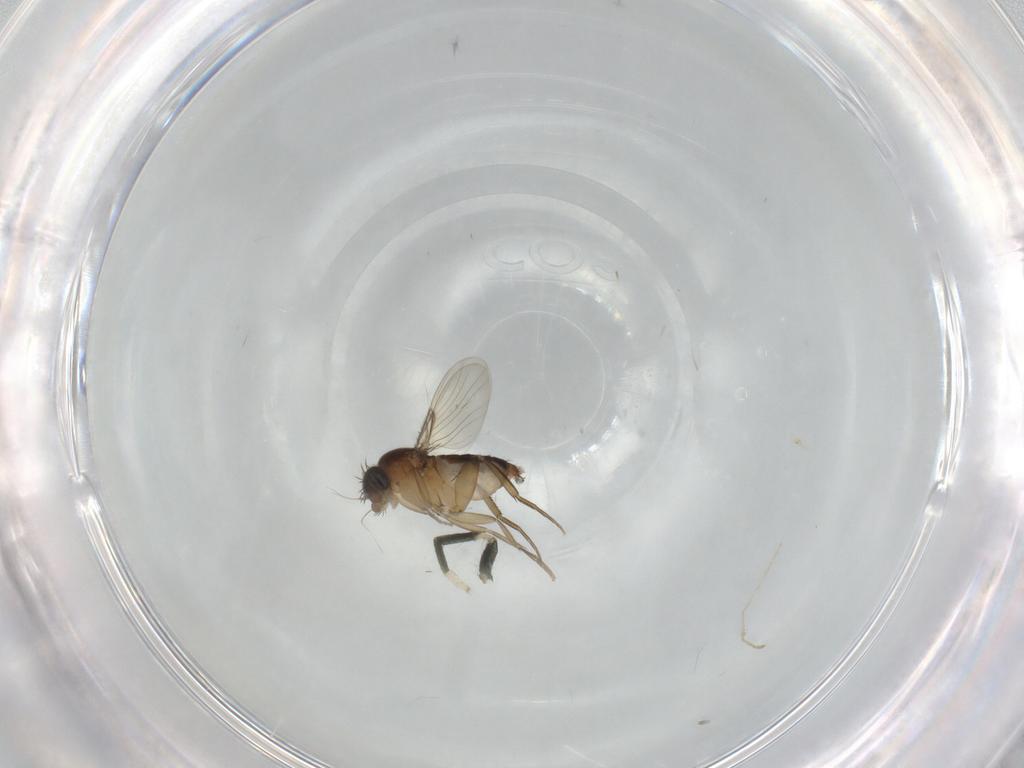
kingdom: Animalia
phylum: Arthropoda
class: Insecta
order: Diptera
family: Phoridae
